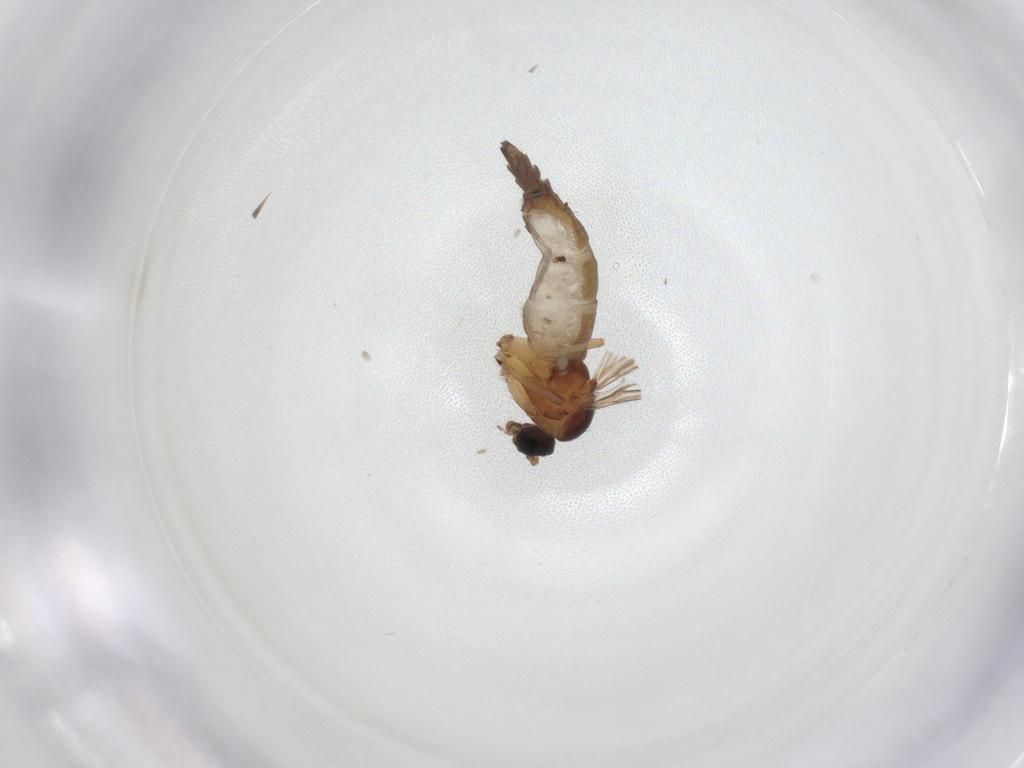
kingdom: Animalia
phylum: Arthropoda
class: Insecta
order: Diptera
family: Sciaridae
